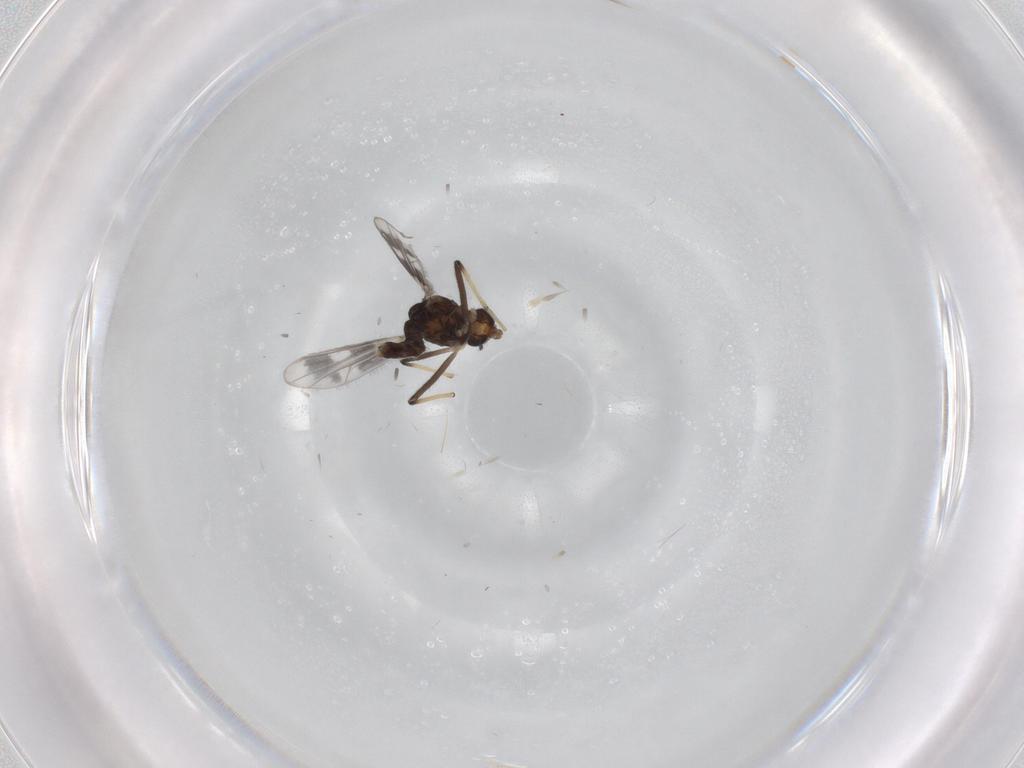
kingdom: Animalia
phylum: Arthropoda
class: Insecta
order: Diptera
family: Chironomidae
